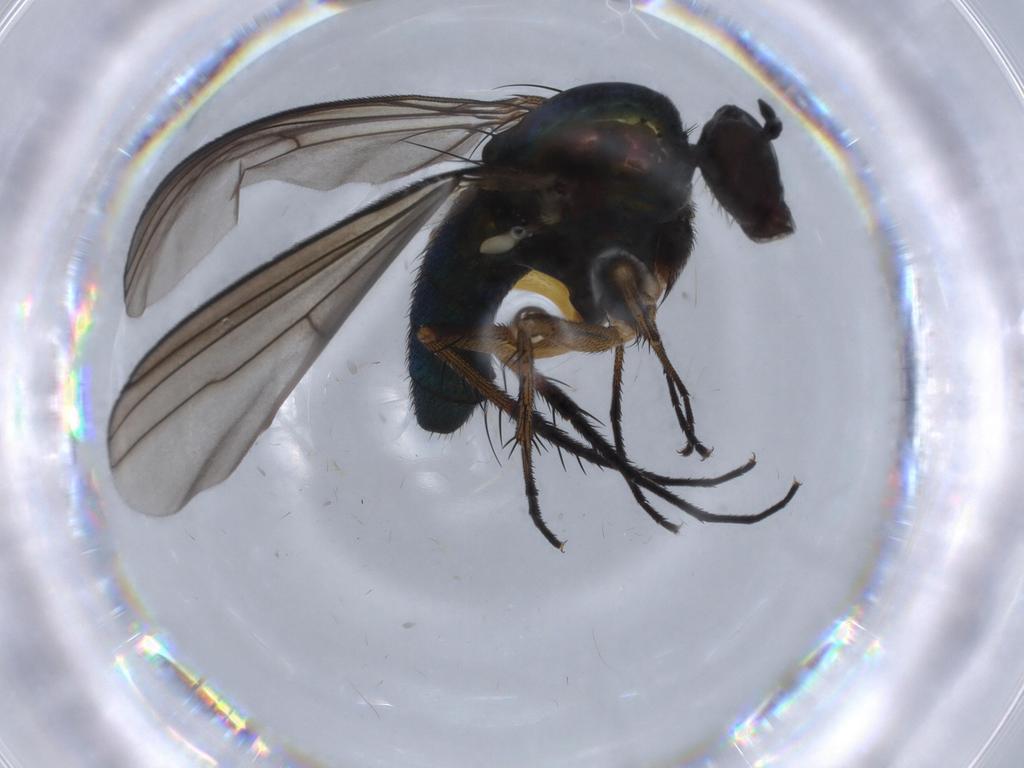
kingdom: Animalia
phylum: Arthropoda
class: Insecta
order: Diptera
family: Dolichopodidae
